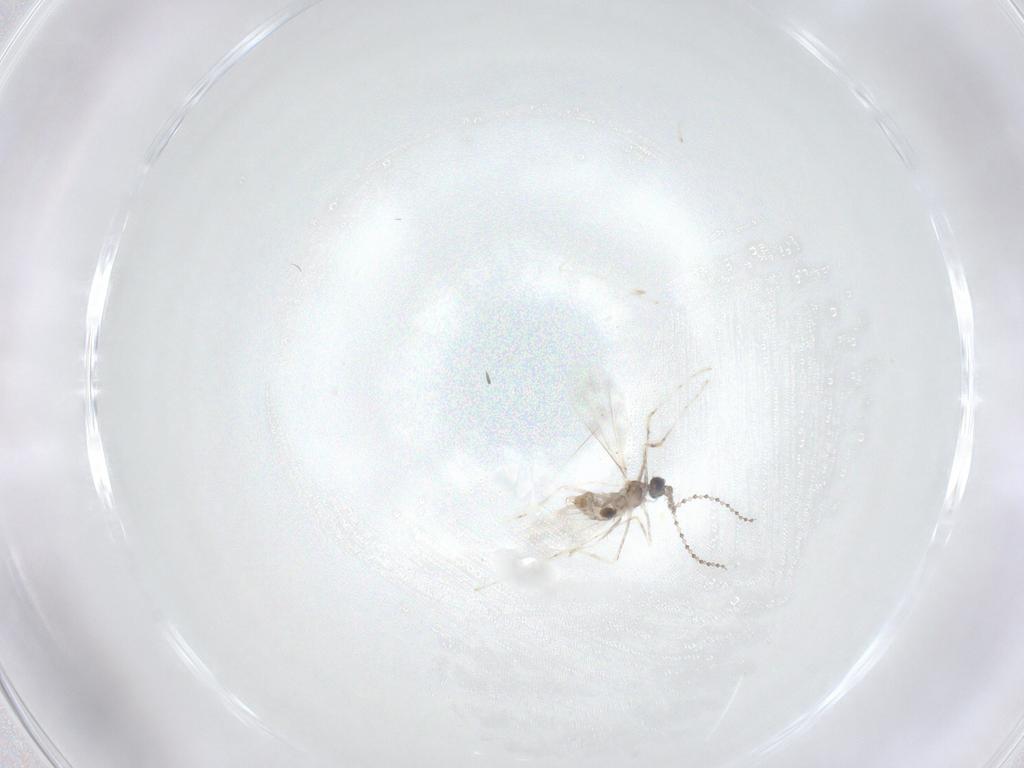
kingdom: Animalia
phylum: Arthropoda
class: Insecta
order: Diptera
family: Cecidomyiidae
